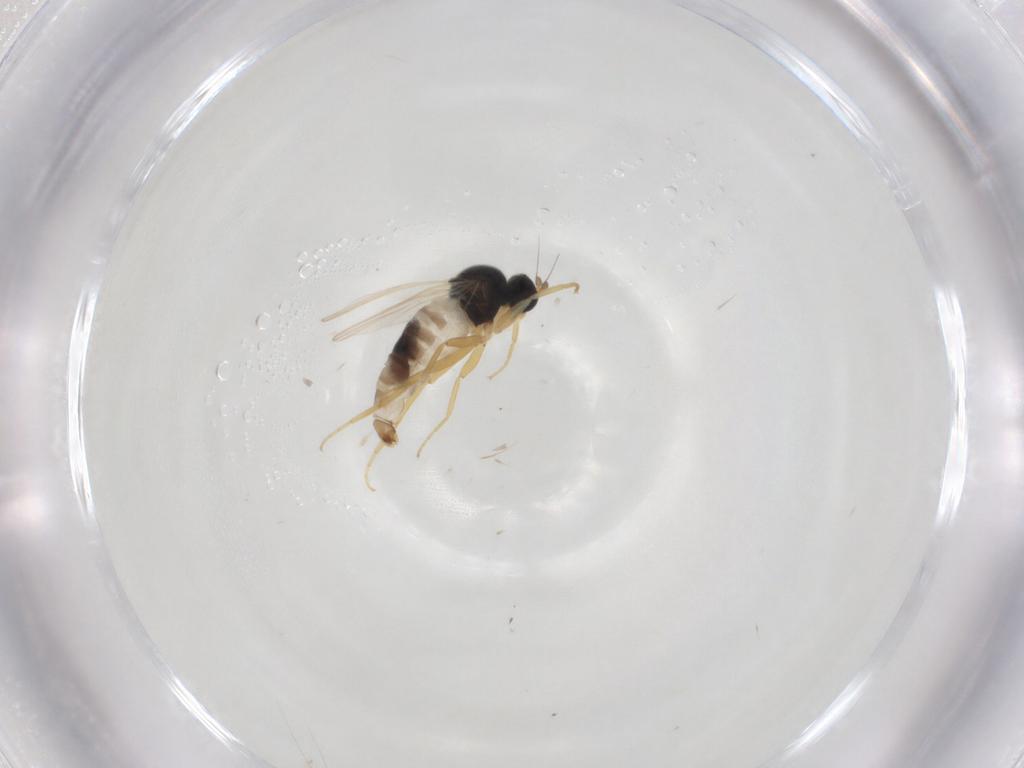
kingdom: Animalia
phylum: Arthropoda
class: Insecta
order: Diptera
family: Hybotidae
